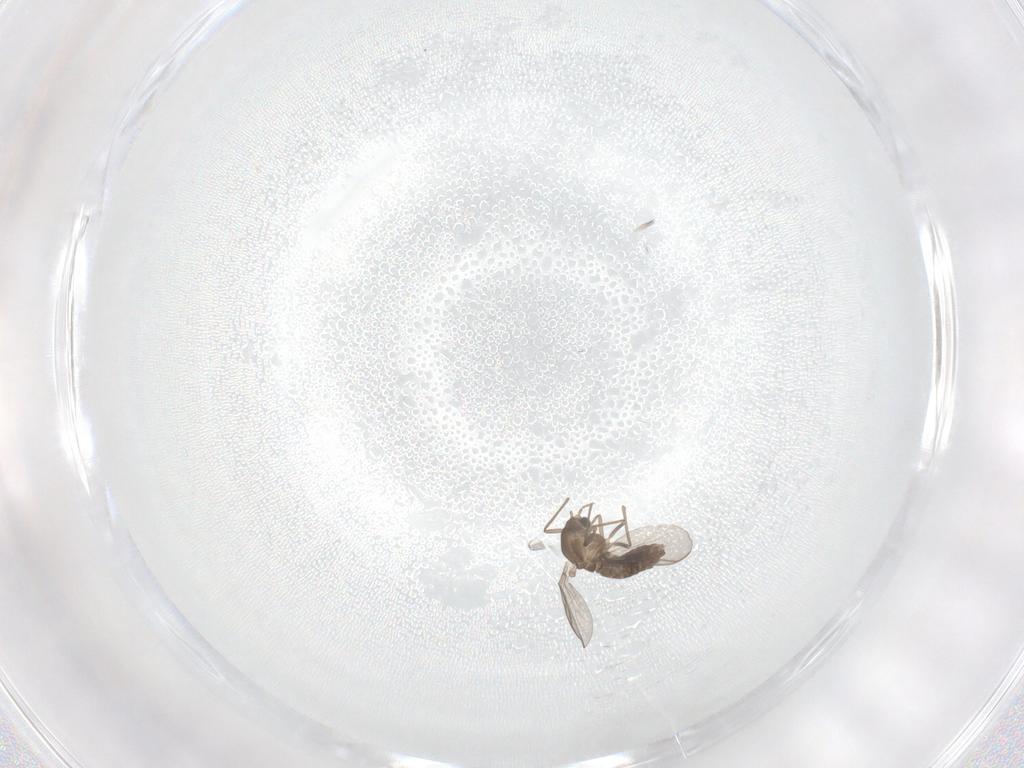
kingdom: Animalia
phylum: Arthropoda
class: Insecta
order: Diptera
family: Chironomidae
